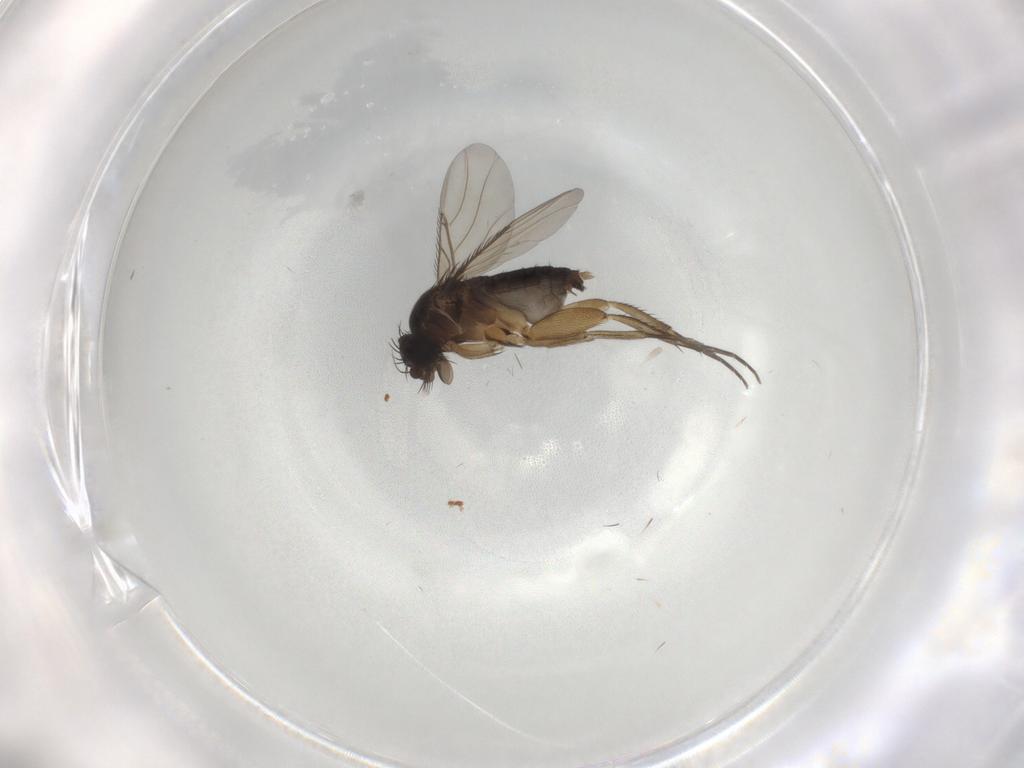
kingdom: Animalia
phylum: Arthropoda
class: Insecta
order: Diptera
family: Phoridae
